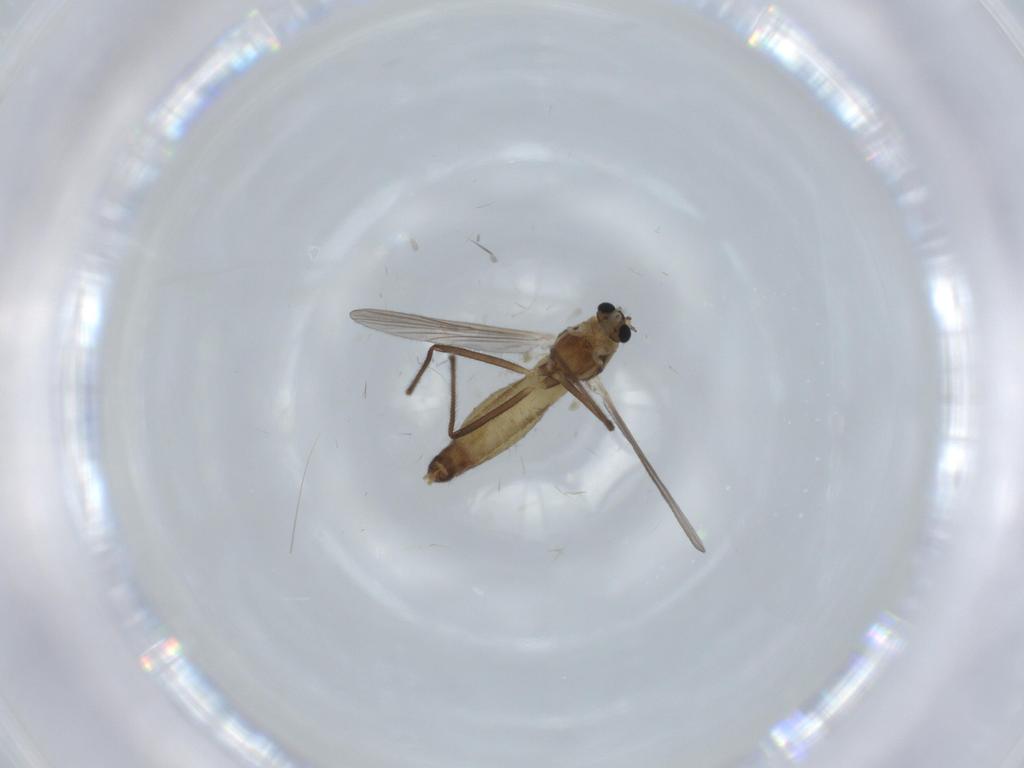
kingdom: Animalia
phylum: Arthropoda
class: Insecta
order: Diptera
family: Chironomidae
